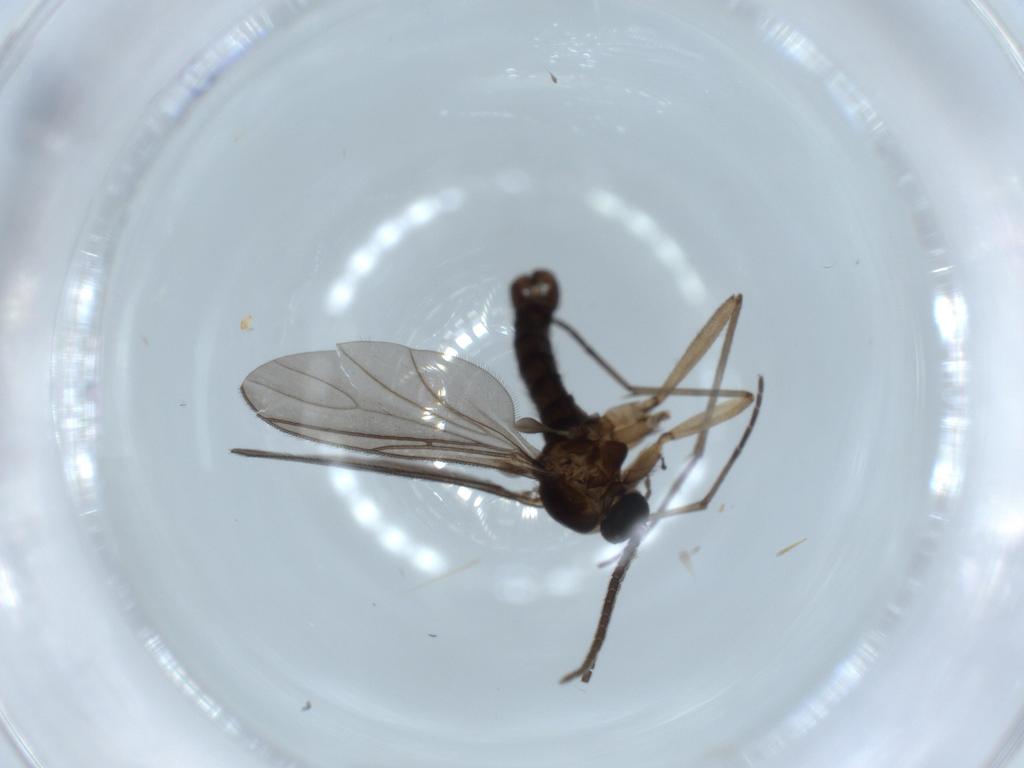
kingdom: Animalia
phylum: Arthropoda
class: Insecta
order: Diptera
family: Sciaridae
